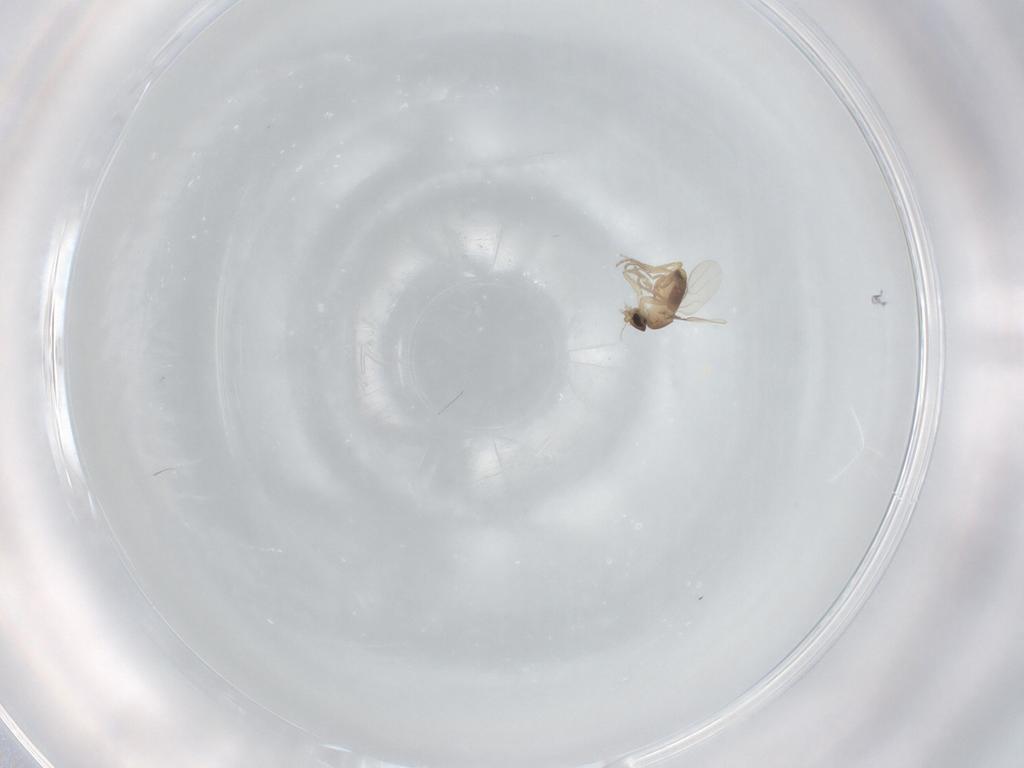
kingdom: Animalia
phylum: Arthropoda
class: Insecta
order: Diptera
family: Phoridae
